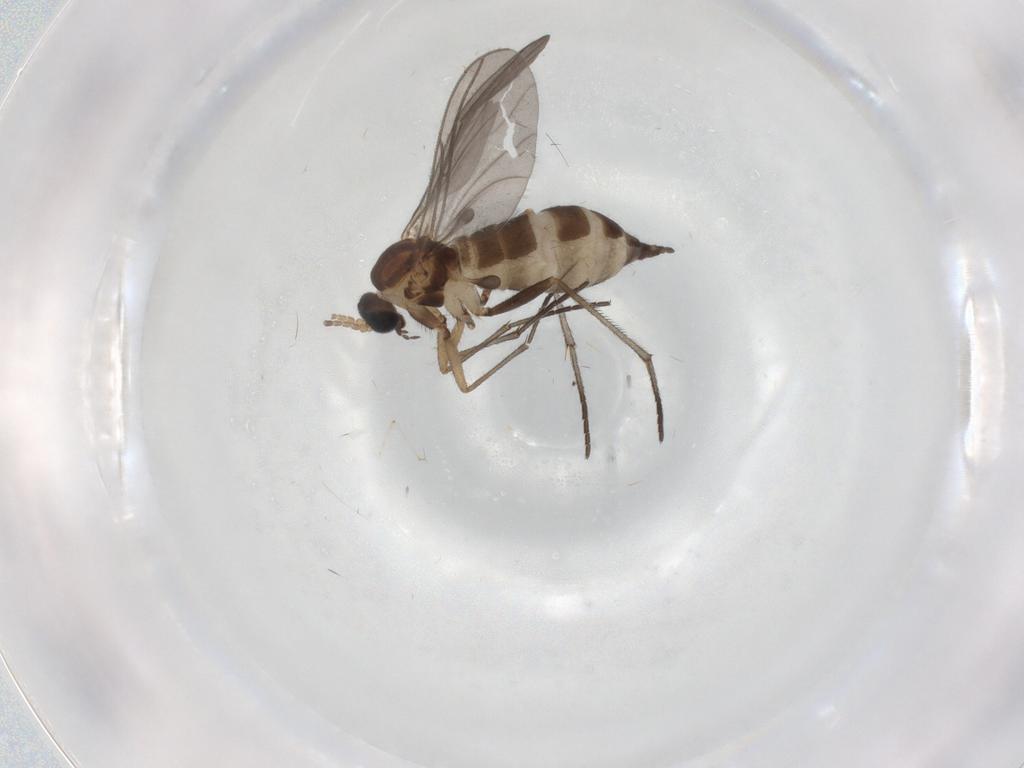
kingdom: Animalia
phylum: Arthropoda
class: Insecta
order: Diptera
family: Sciaridae
